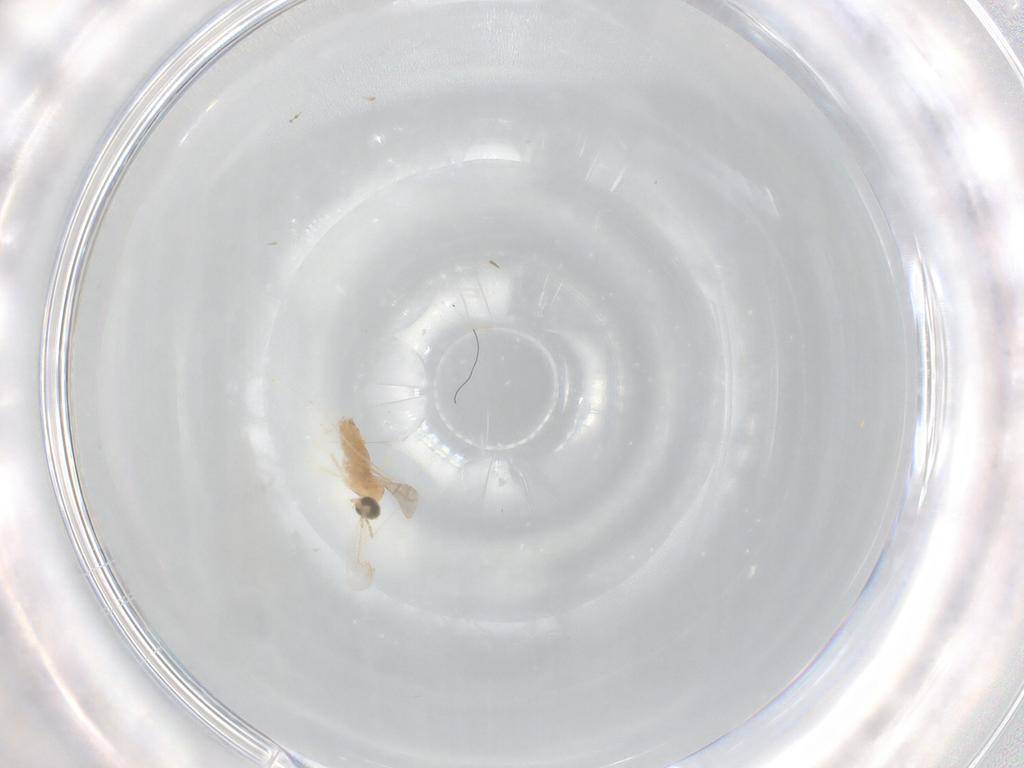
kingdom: Animalia
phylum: Arthropoda
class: Insecta
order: Diptera
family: Cecidomyiidae
